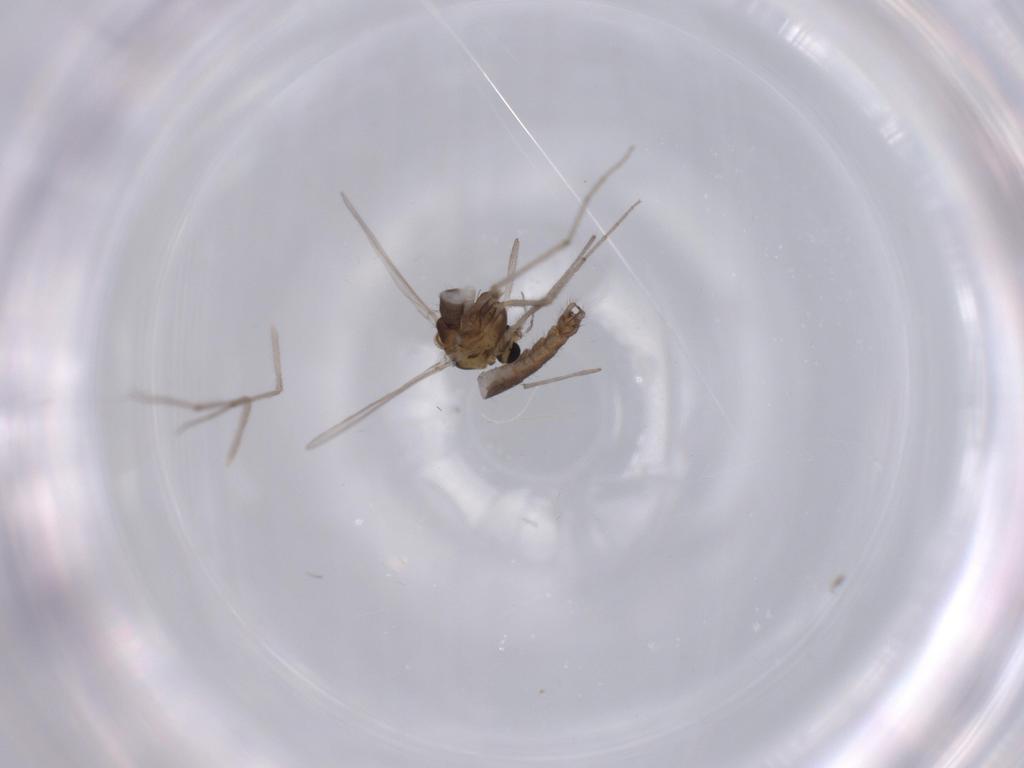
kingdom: Animalia
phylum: Arthropoda
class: Insecta
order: Diptera
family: Chironomidae
